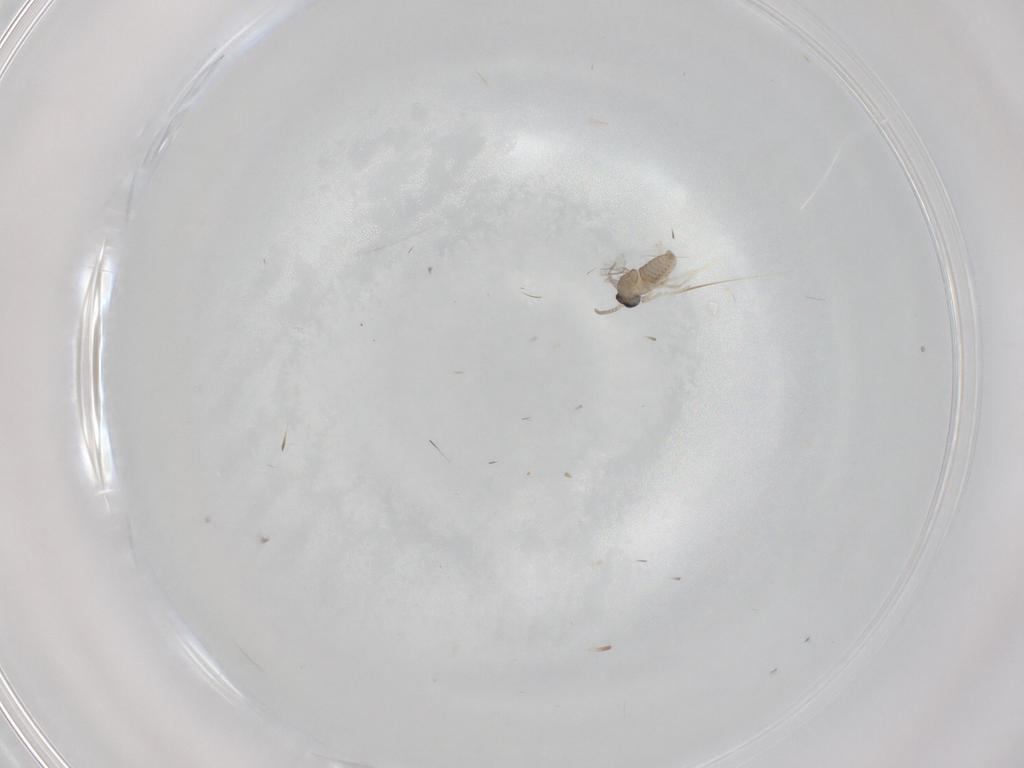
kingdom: Animalia
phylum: Arthropoda
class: Insecta
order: Diptera
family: Cecidomyiidae
